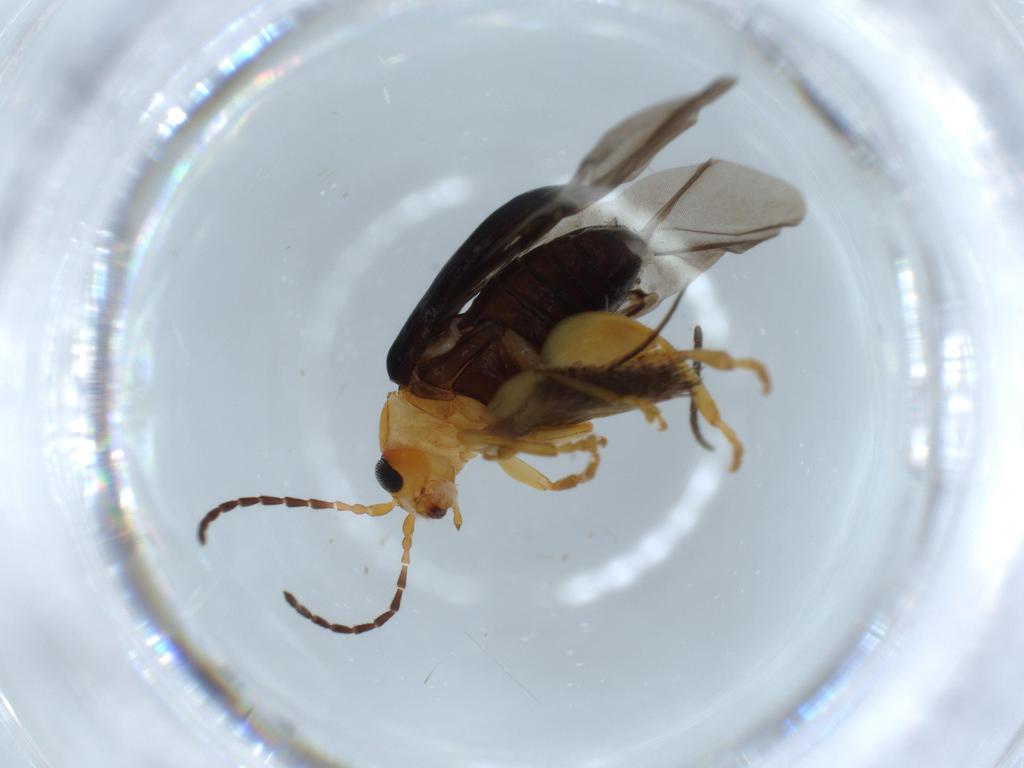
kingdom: Animalia
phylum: Arthropoda
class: Insecta
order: Coleoptera
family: Chrysomelidae
